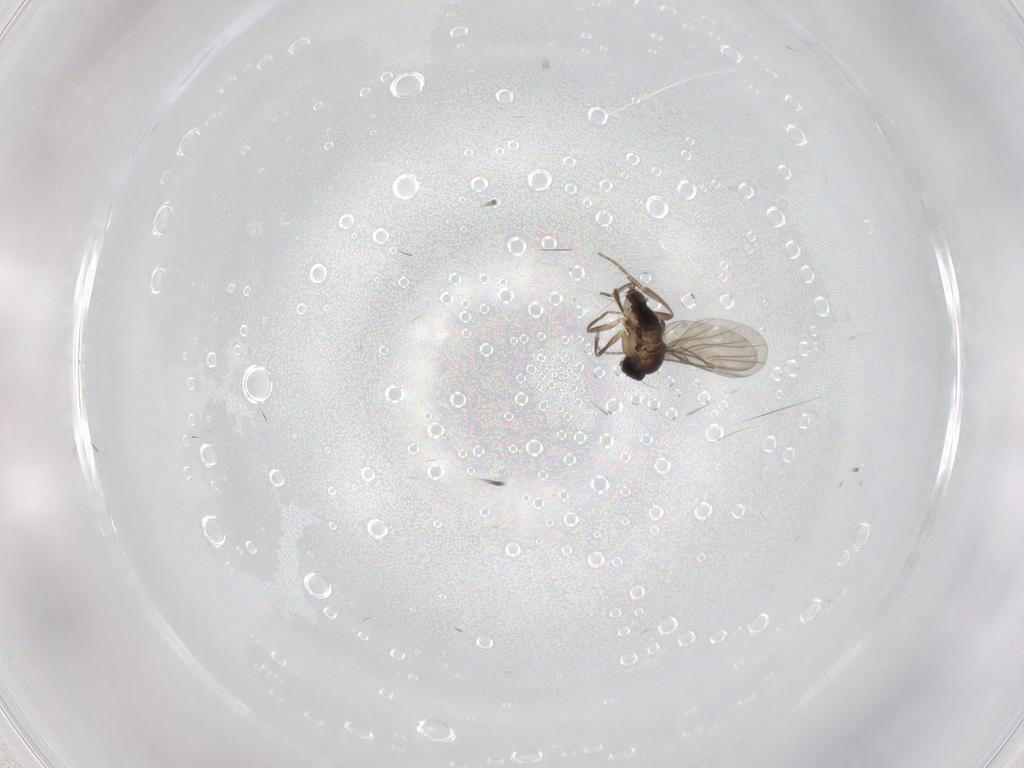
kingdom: Animalia
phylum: Arthropoda
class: Insecta
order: Diptera
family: Phoridae
